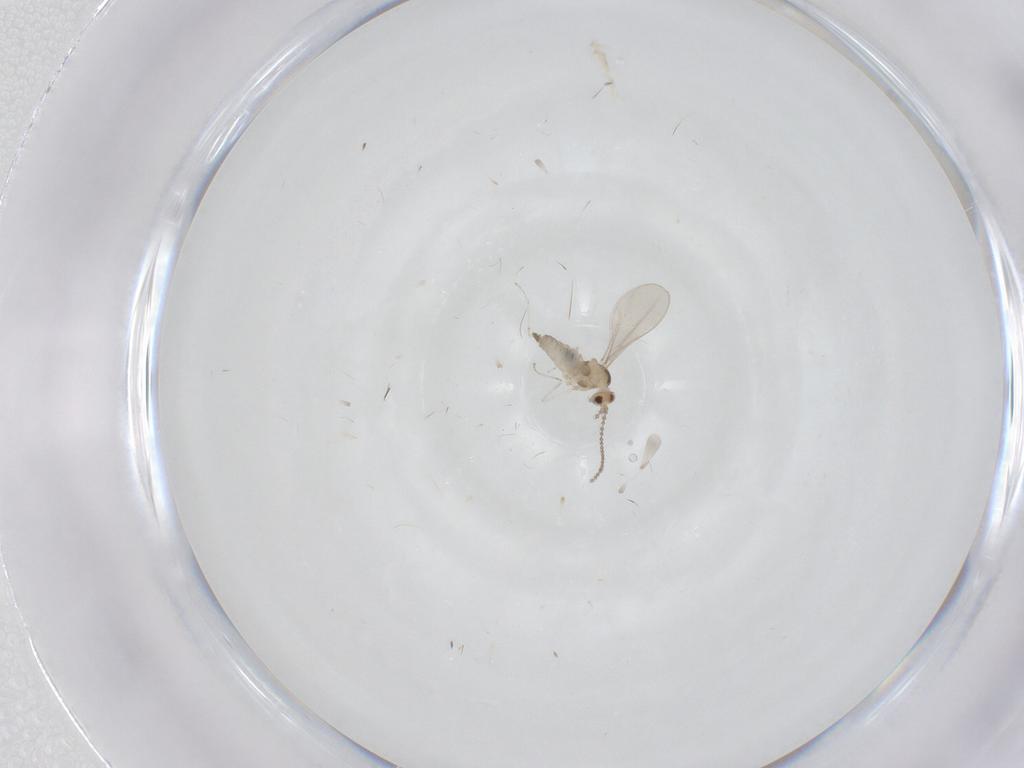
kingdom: Animalia
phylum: Arthropoda
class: Insecta
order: Diptera
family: Cecidomyiidae
